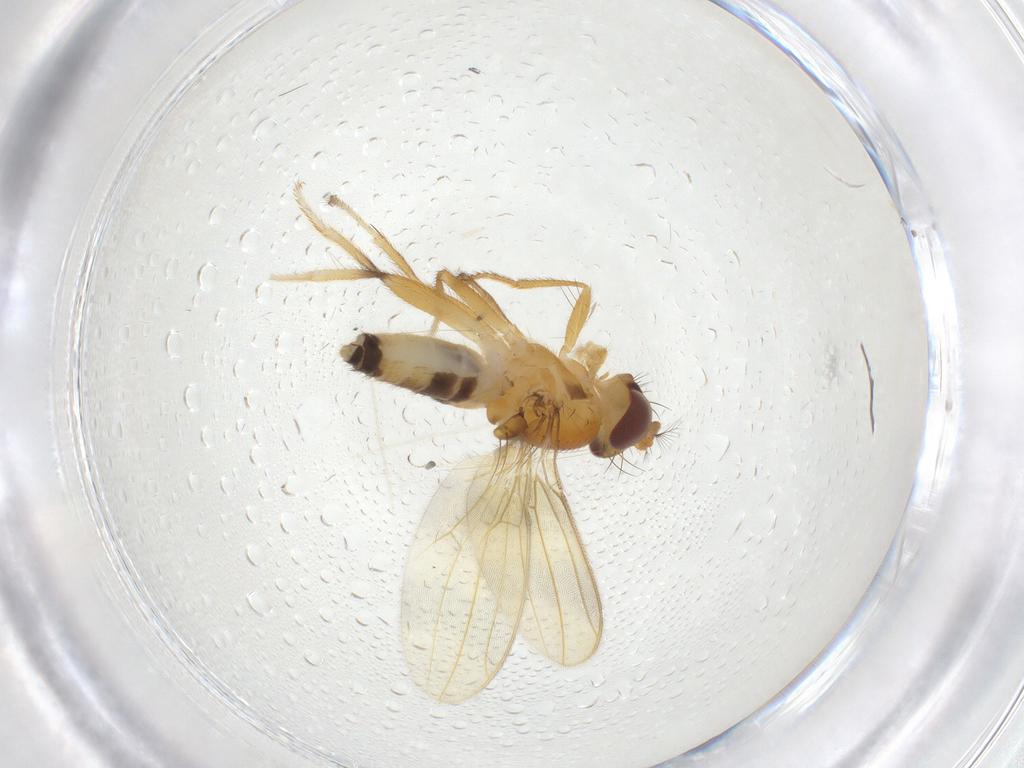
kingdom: Animalia
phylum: Arthropoda
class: Insecta
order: Diptera
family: Periscelididae
